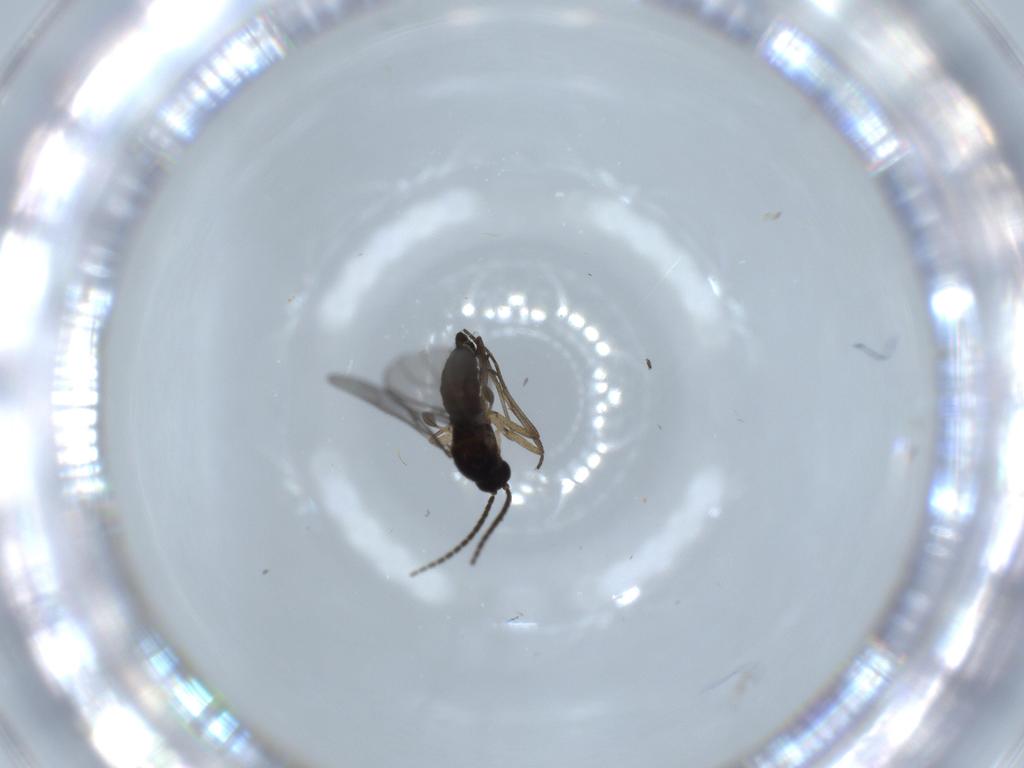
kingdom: Animalia
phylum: Arthropoda
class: Insecta
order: Diptera
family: Sciaridae
